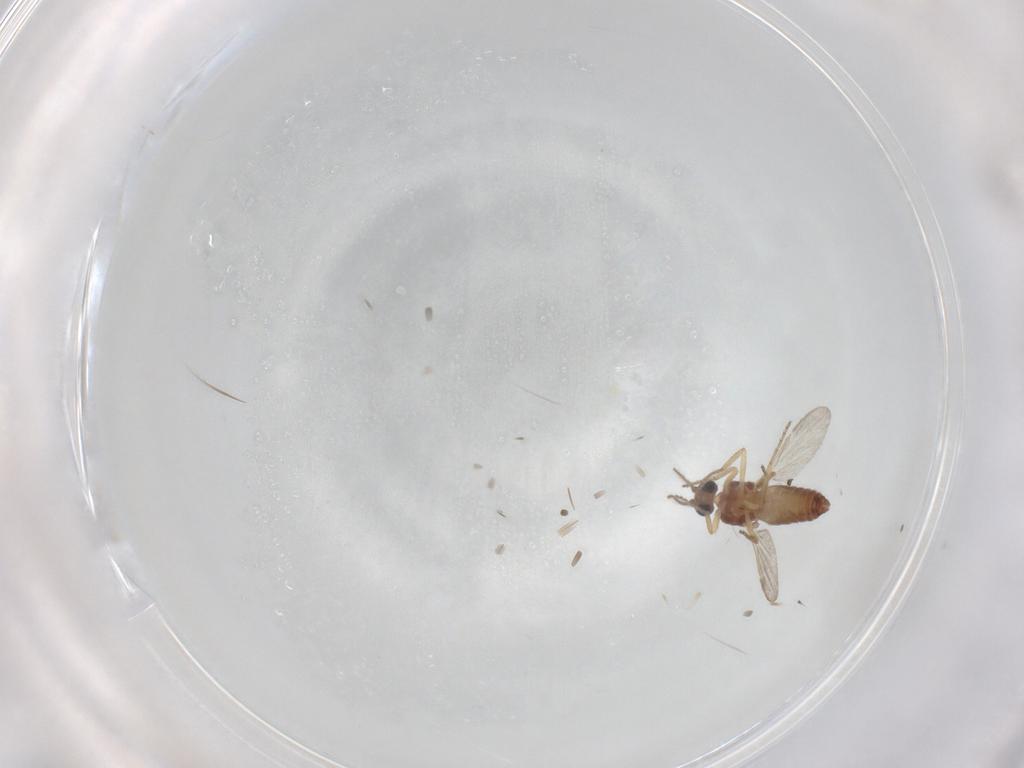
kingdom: Animalia
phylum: Arthropoda
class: Insecta
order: Diptera
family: Ceratopogonidae
